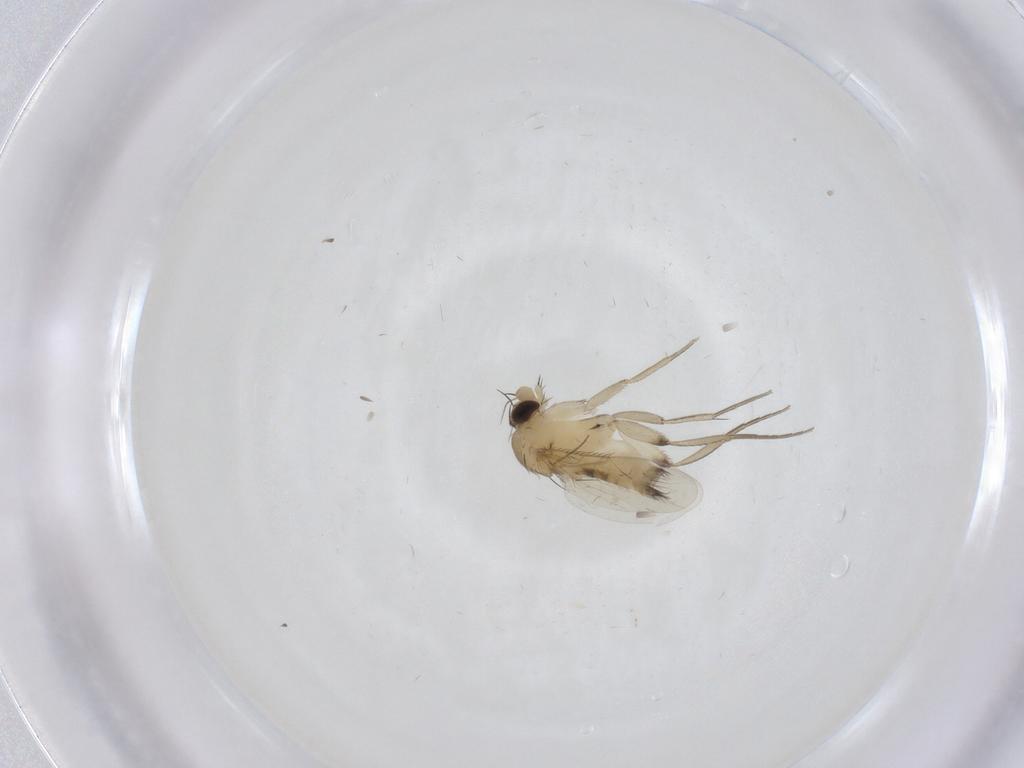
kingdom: Animalia
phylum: Arthropoda
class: Insecta
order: Diptera
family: Phoridae
